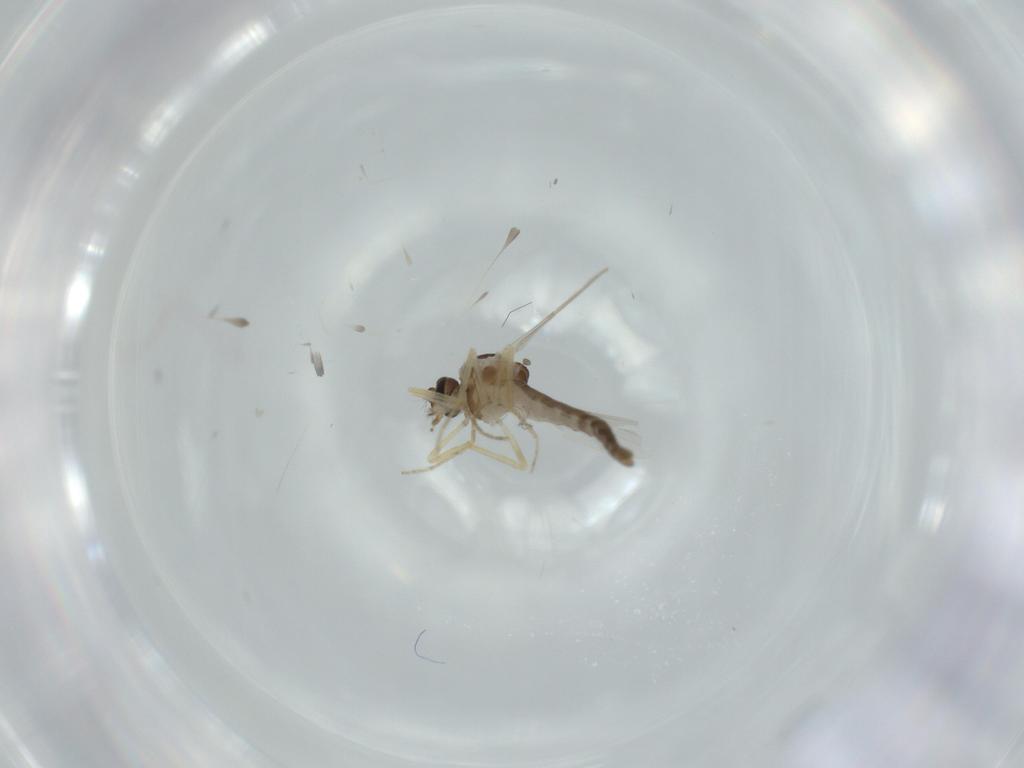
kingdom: Animalia
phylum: Arthropoda
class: Insecta
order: Diptera
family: Ceratopogonidae
